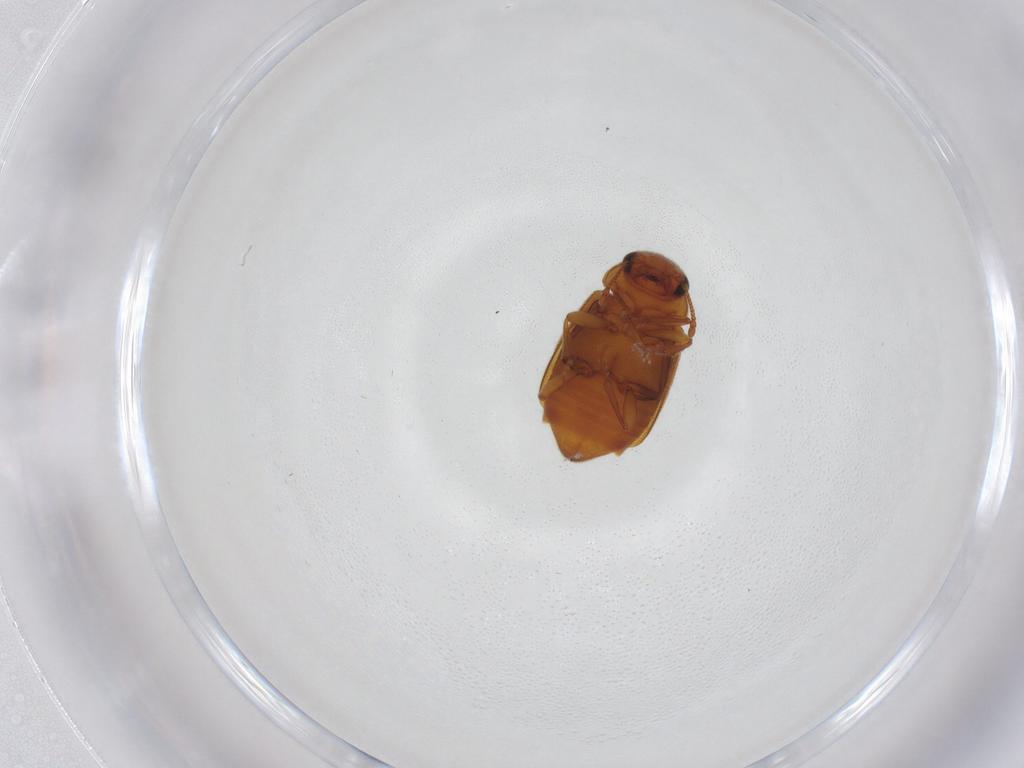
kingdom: Animalia
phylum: Arthropoda
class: Insecta
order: Coleoptera
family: Kateretidae
